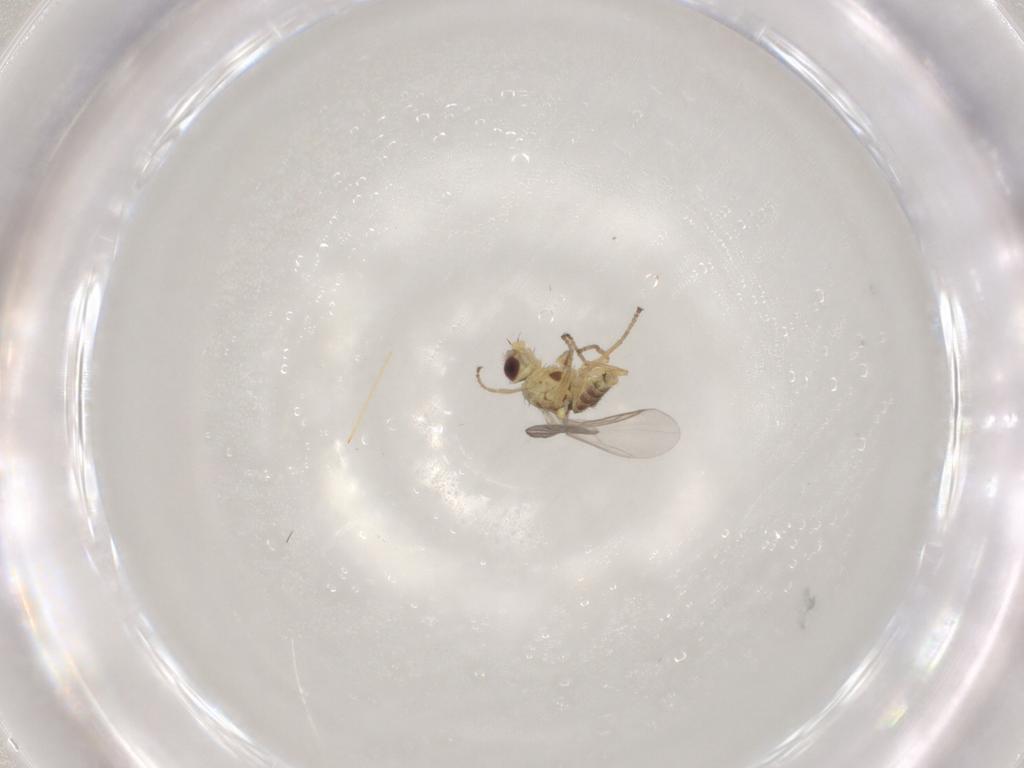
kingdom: Animalia
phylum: Arthropoda
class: Insecta
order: Diptera
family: Agromyzidae
